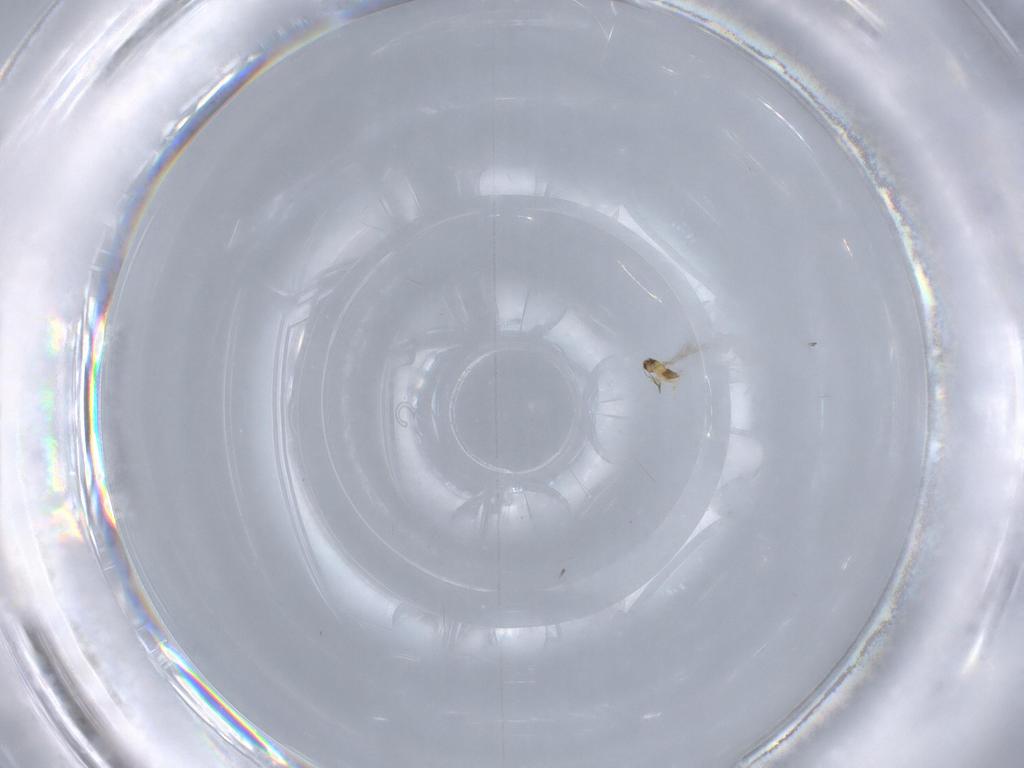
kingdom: Animalia
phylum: Arthropoda
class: Insecta
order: Hymenoptera
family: Mymaridae
